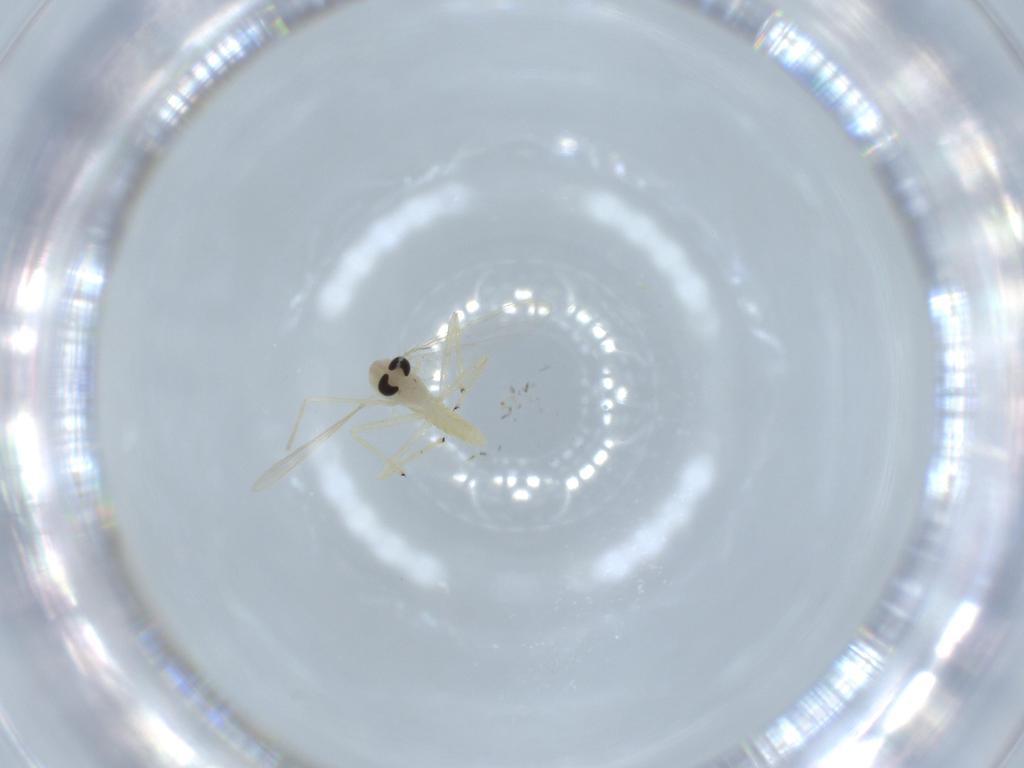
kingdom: Animalia
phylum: Arthropoda
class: Insecta
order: Diptera
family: Chironomidae
